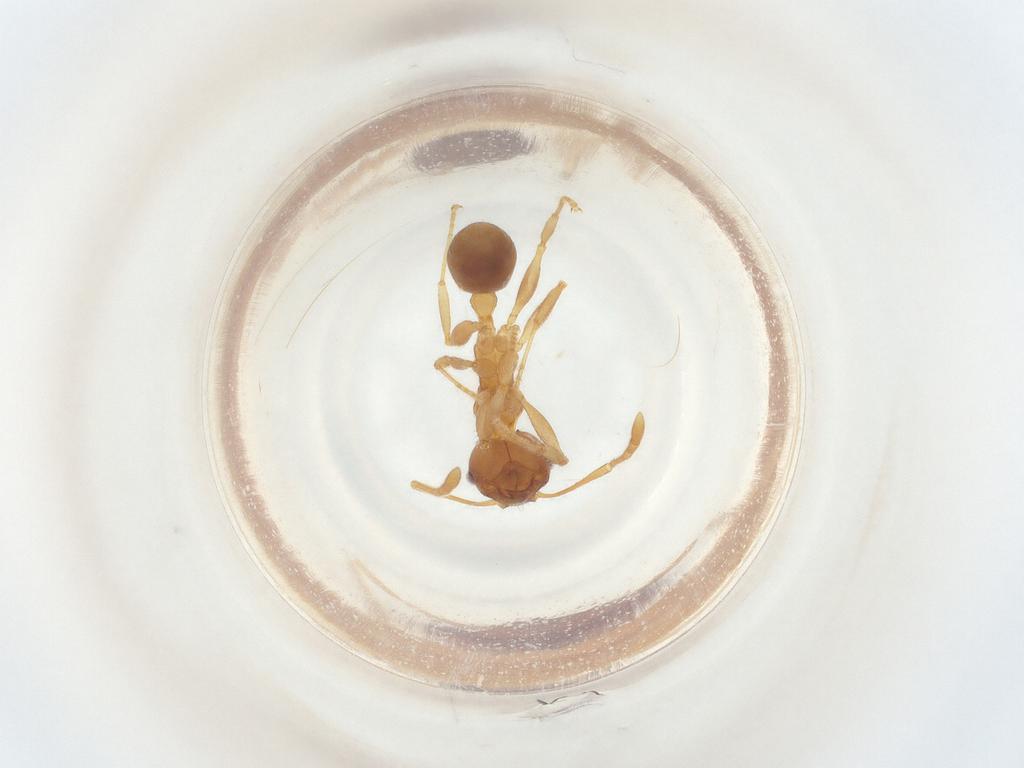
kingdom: Animalia
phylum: Arthropoda
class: Insecta
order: Hymenoptera
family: Formicidae
